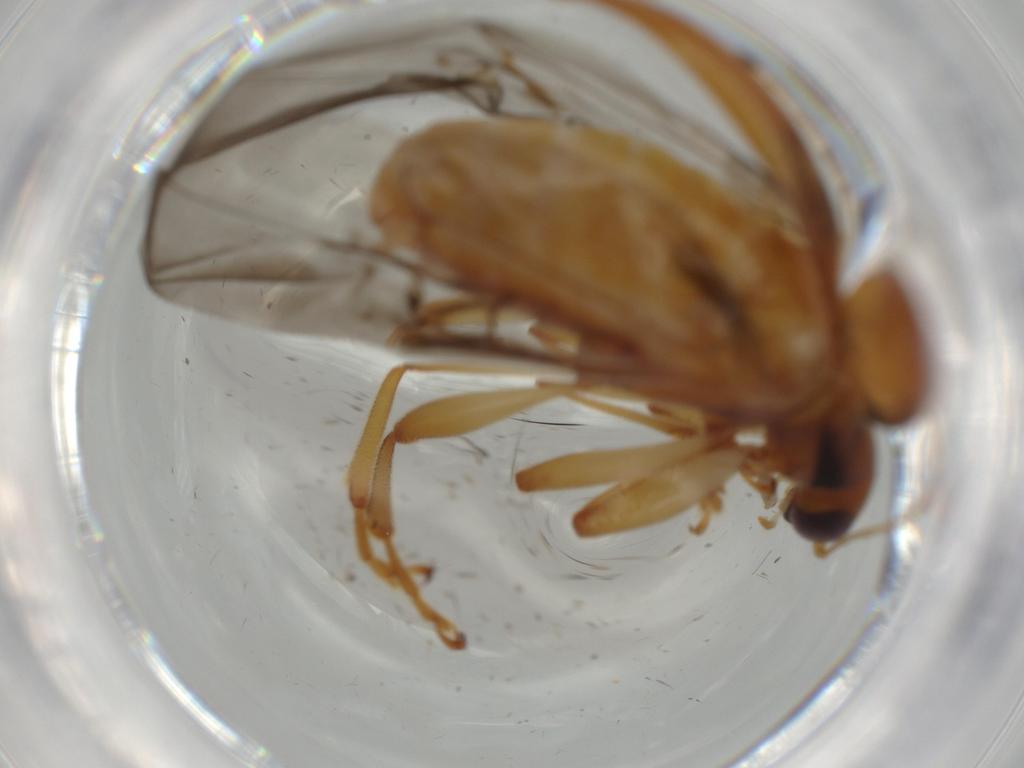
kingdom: Animalia
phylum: Arthropoda
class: Insecta
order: Coleoptera
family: Chrysomelidae
